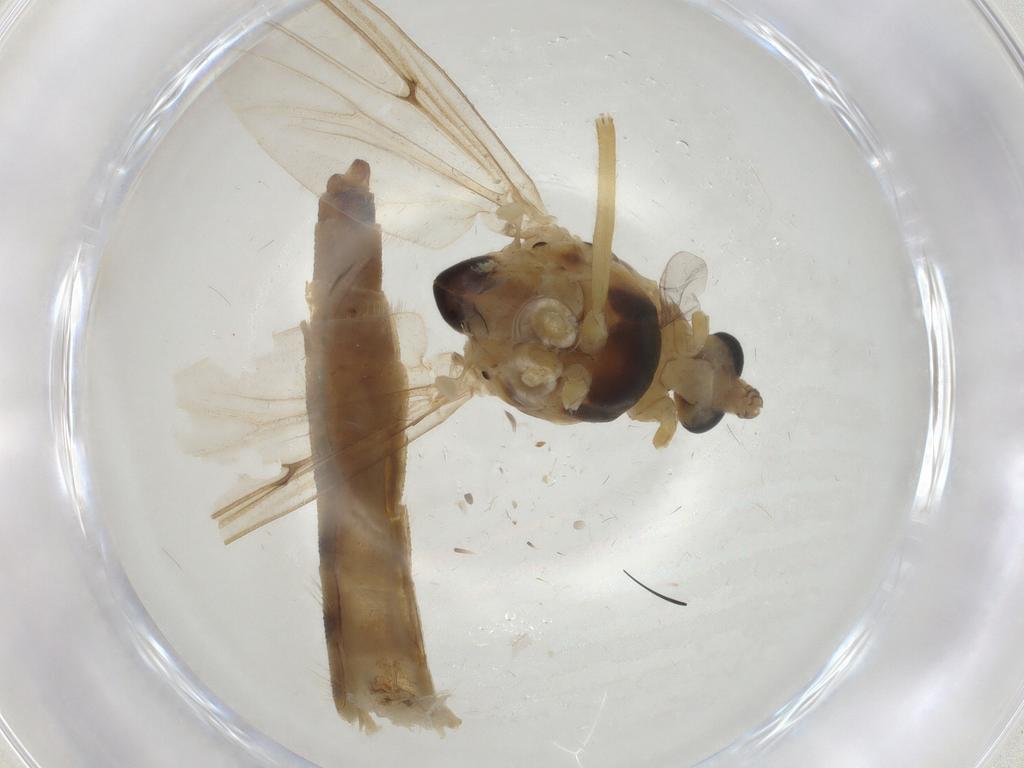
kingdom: Animalia
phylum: Arthropoda
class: Insecta
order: Diptera
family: Chironomidae
